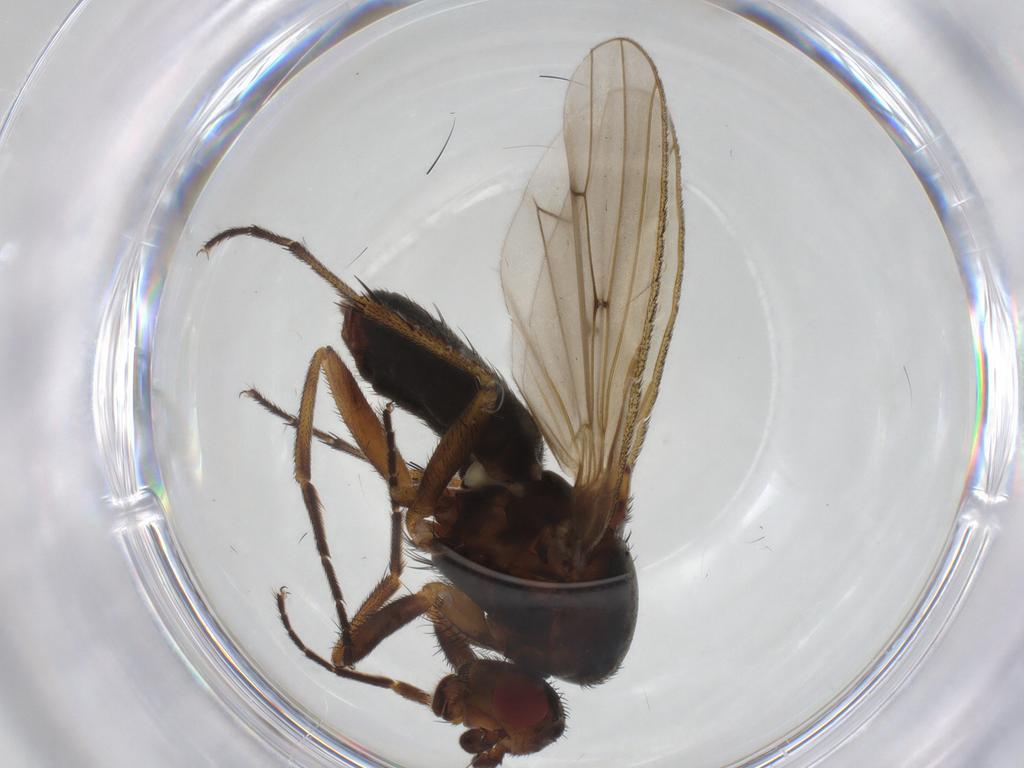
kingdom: Animalia
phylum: Arthropoda
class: Insecta
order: Diptera
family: Heleomyzidae
